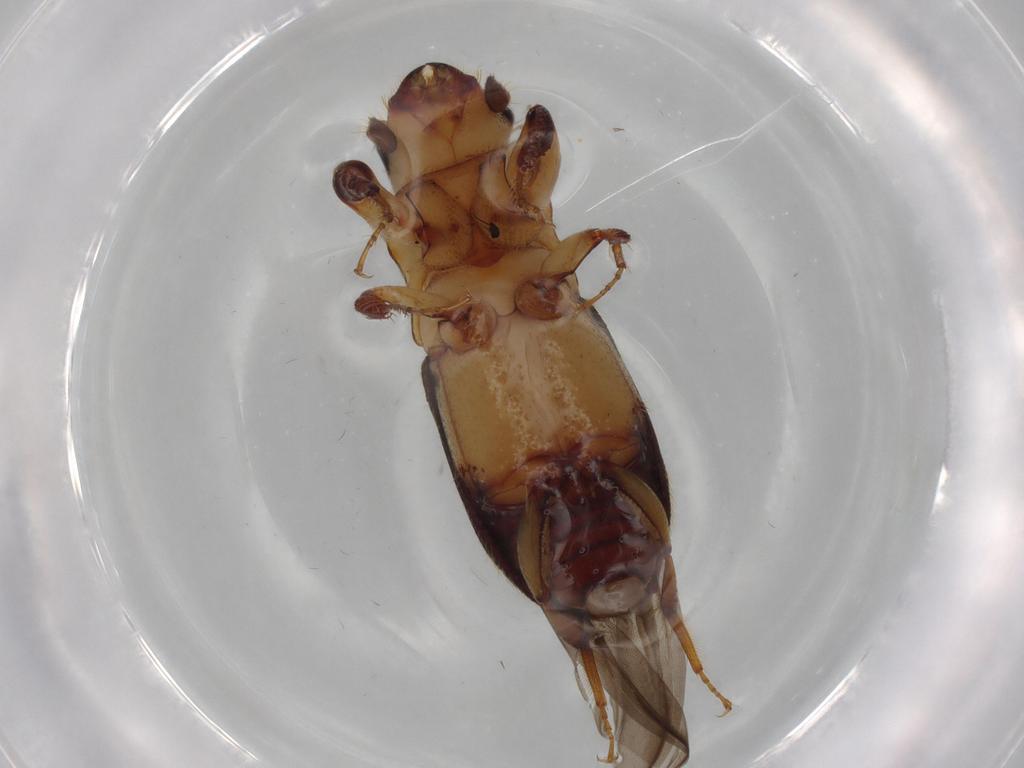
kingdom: Animalia
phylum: Arthropoda
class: Insecta
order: Coleoptera
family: Curculionidae
